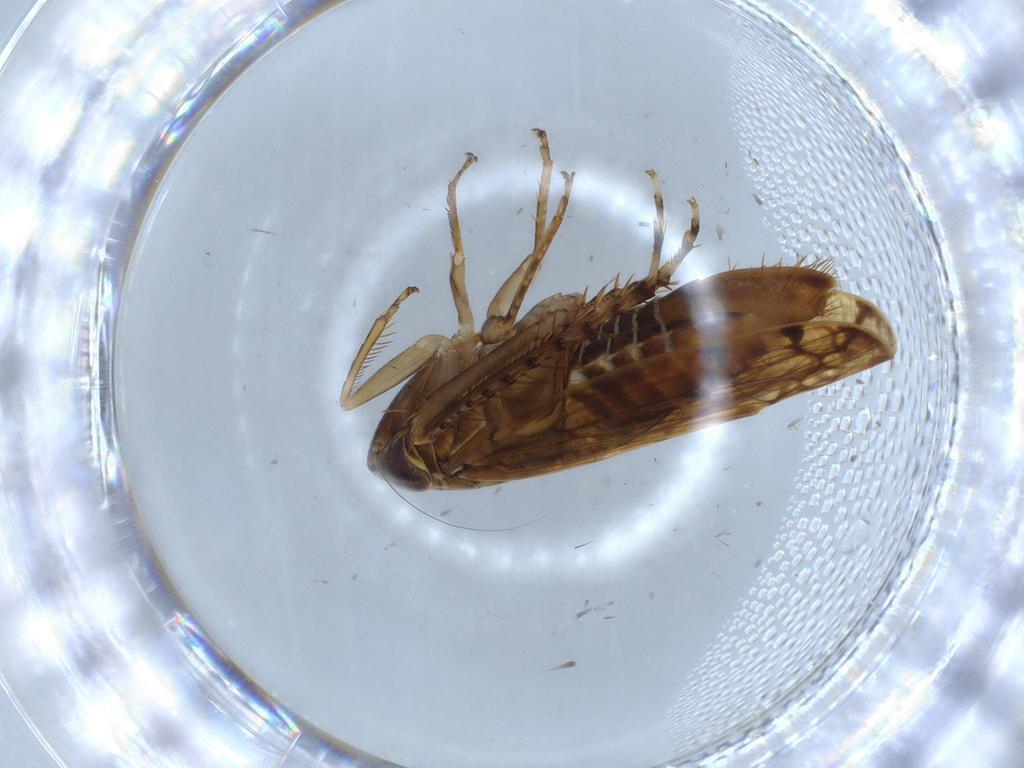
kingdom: Animalia
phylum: Arthropoda
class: Insecta
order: Hemiptera
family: Cicadellidae
